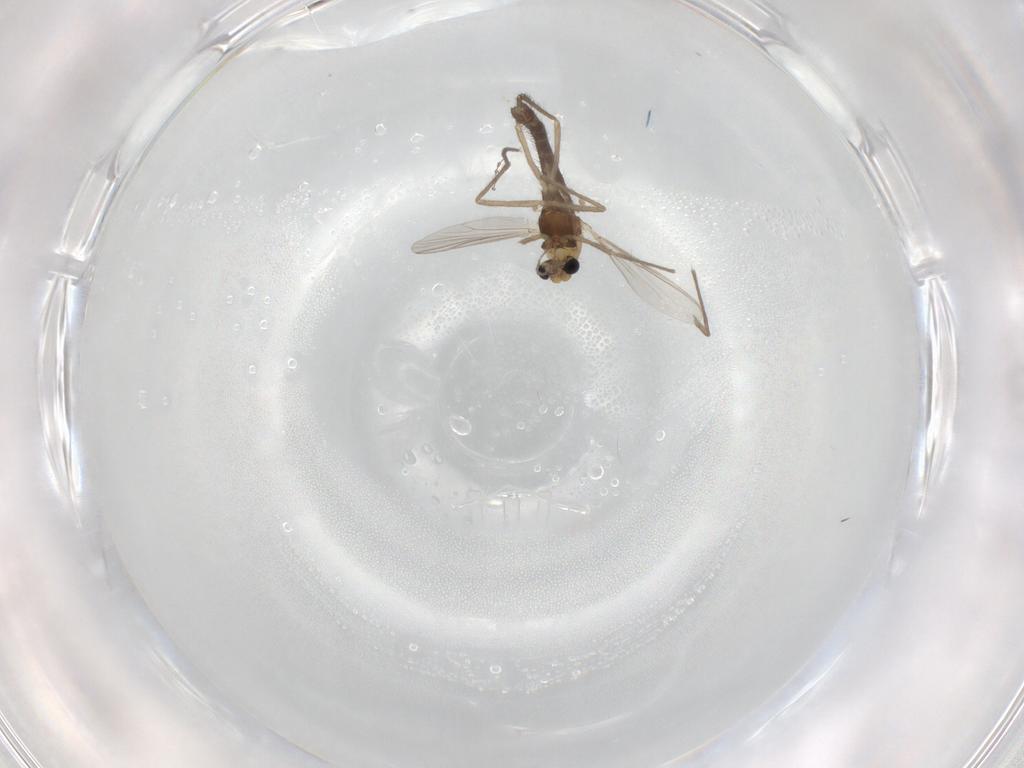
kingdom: Animalia
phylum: Arthropoda
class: Insecta
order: Diptera
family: Chironomidae
